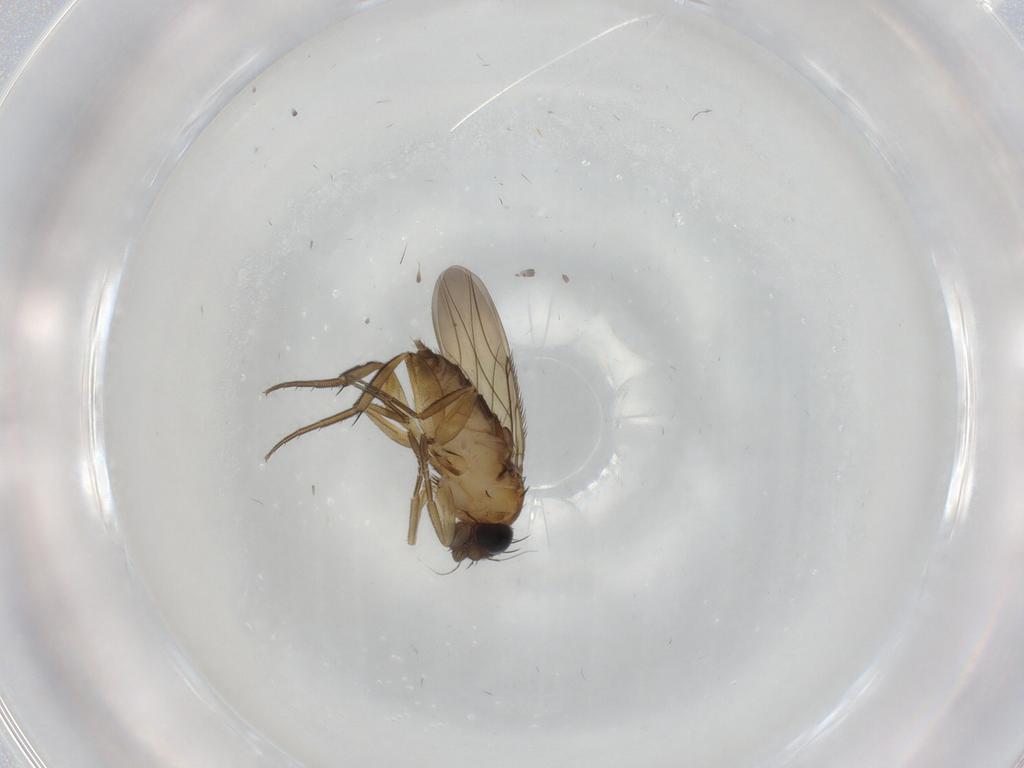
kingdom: Animalia
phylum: Arthropoda
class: Insecta
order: Diptera
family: Phoridae
